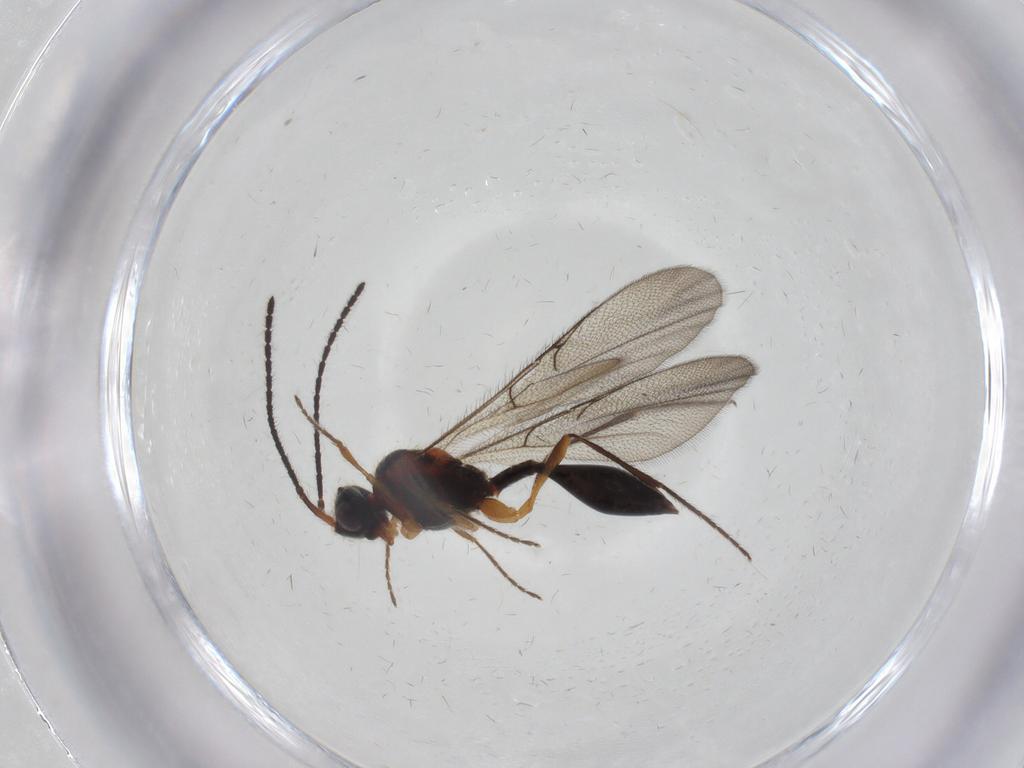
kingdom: Animalia
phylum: Arthropoda
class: Insecta
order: Hymenoptera
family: Diapriidae
